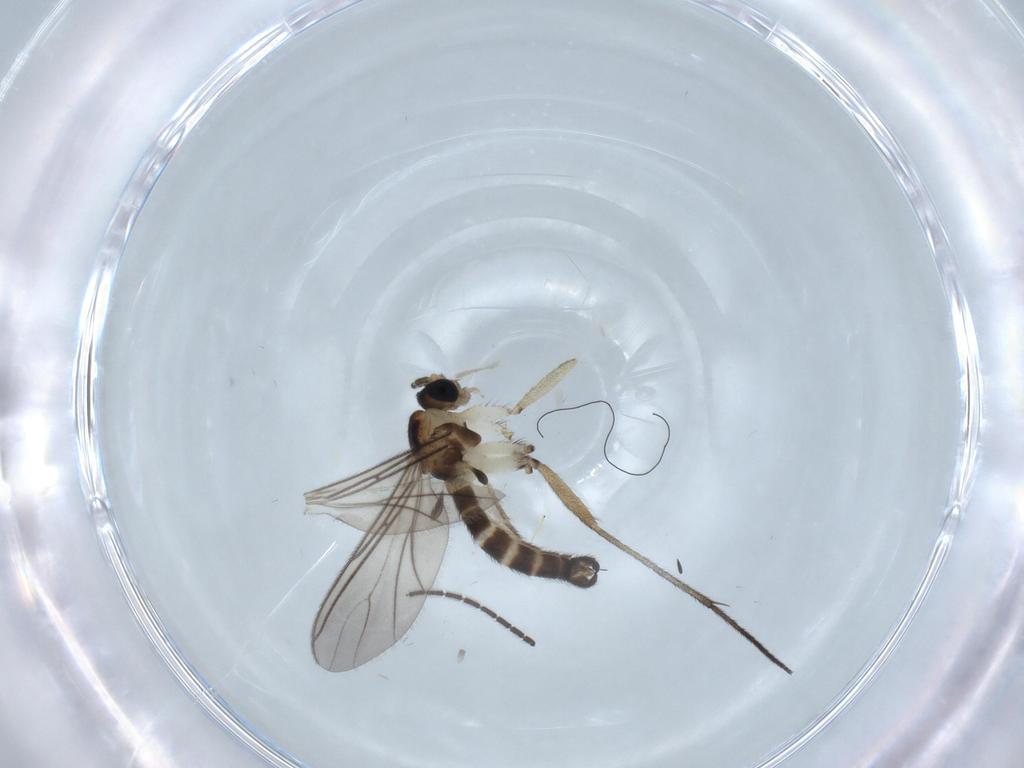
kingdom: Animalia
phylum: Arthropoda
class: Insecta
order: Diptera
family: Sciaridae
